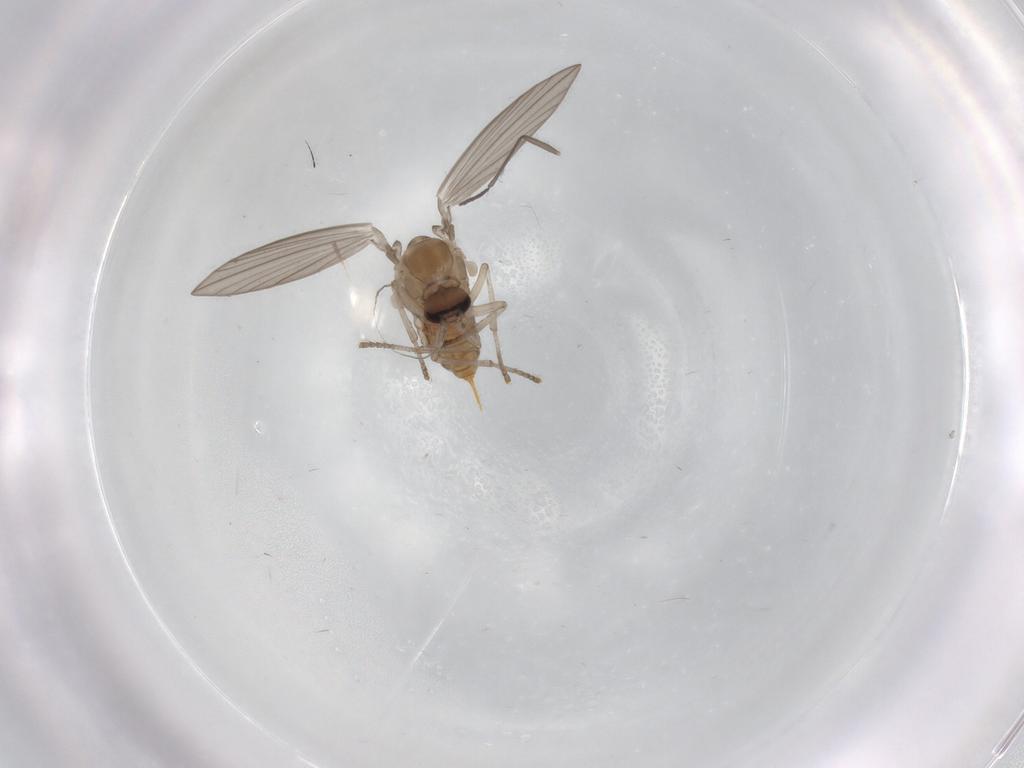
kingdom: Animalia
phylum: Arthropoda
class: Insecta
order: Diptera
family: Psychodidae
